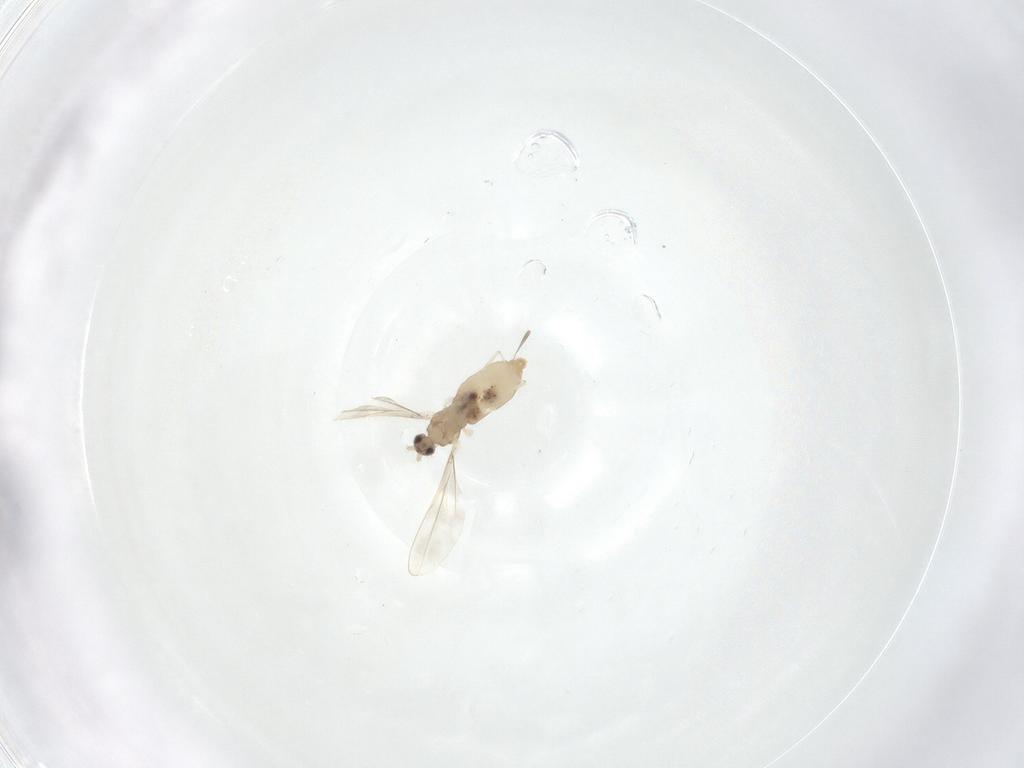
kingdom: Animalia
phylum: Arthropoda
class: Insecta
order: Diptera
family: Cecidomyiidae
